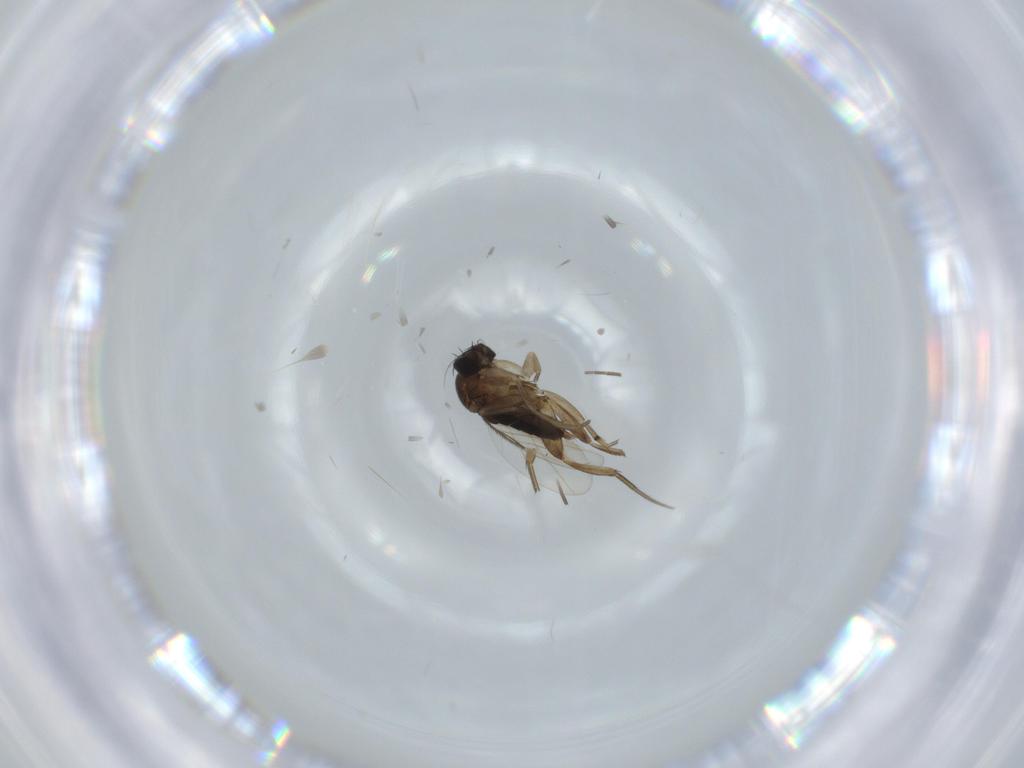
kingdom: Animalia
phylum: Arthropoda
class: Insecta
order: Diptera
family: Phoridae
